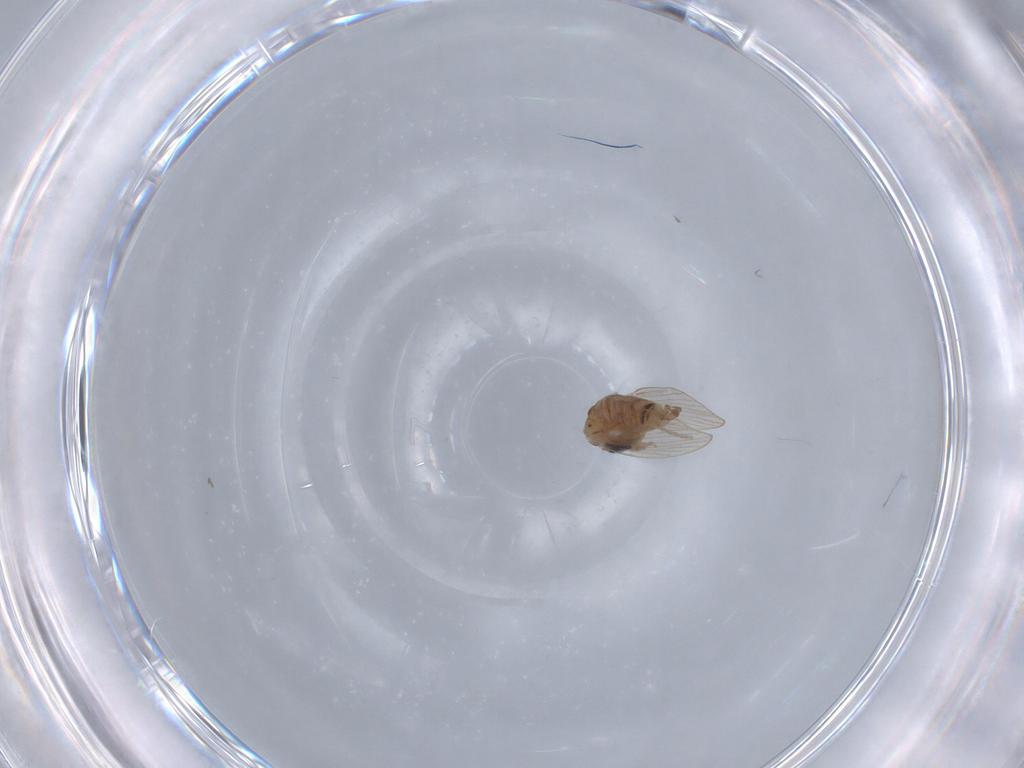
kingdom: Animalia
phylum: Arthropoda
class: Insecta
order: Diptera
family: Psychodidae
